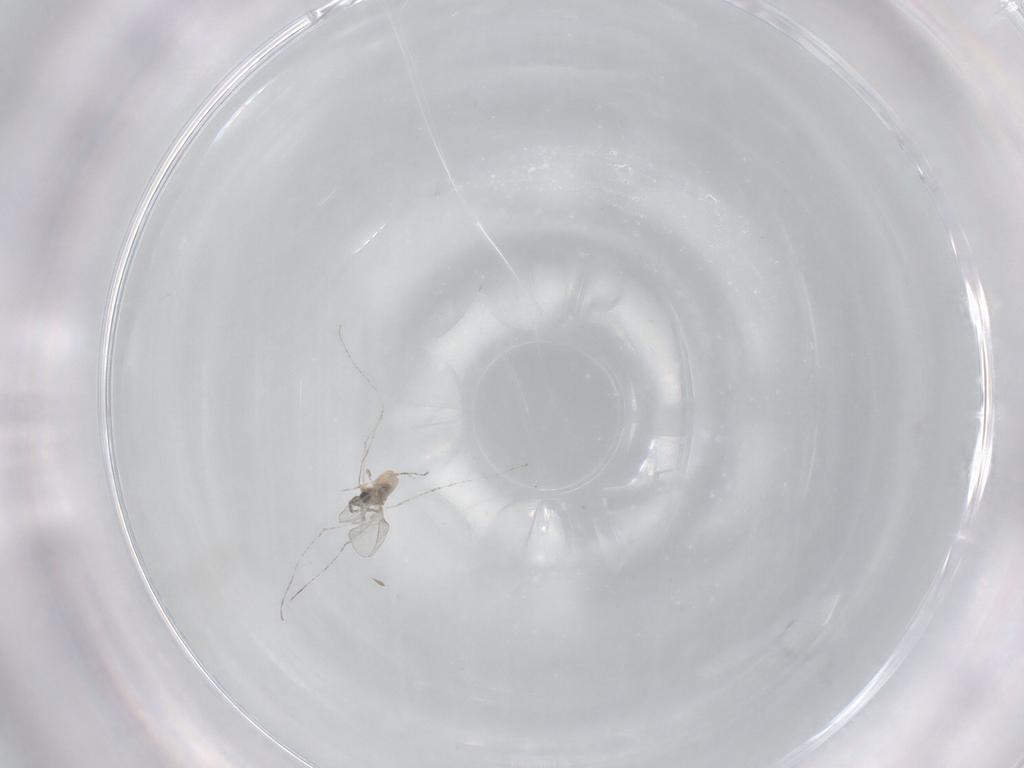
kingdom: Animalia
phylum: Arthropoda
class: Insecta
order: Diptera
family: Cecidomyiidae
